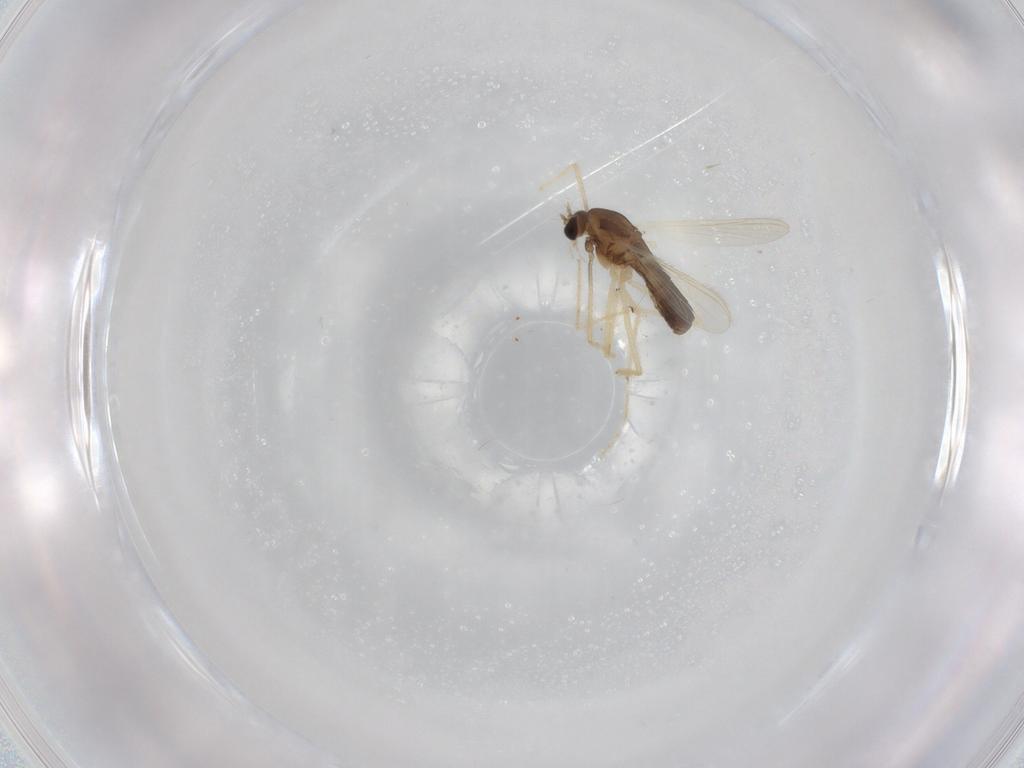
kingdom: Animalia
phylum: Arthropoda
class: Insecta
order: Diptera
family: Chironomidae
